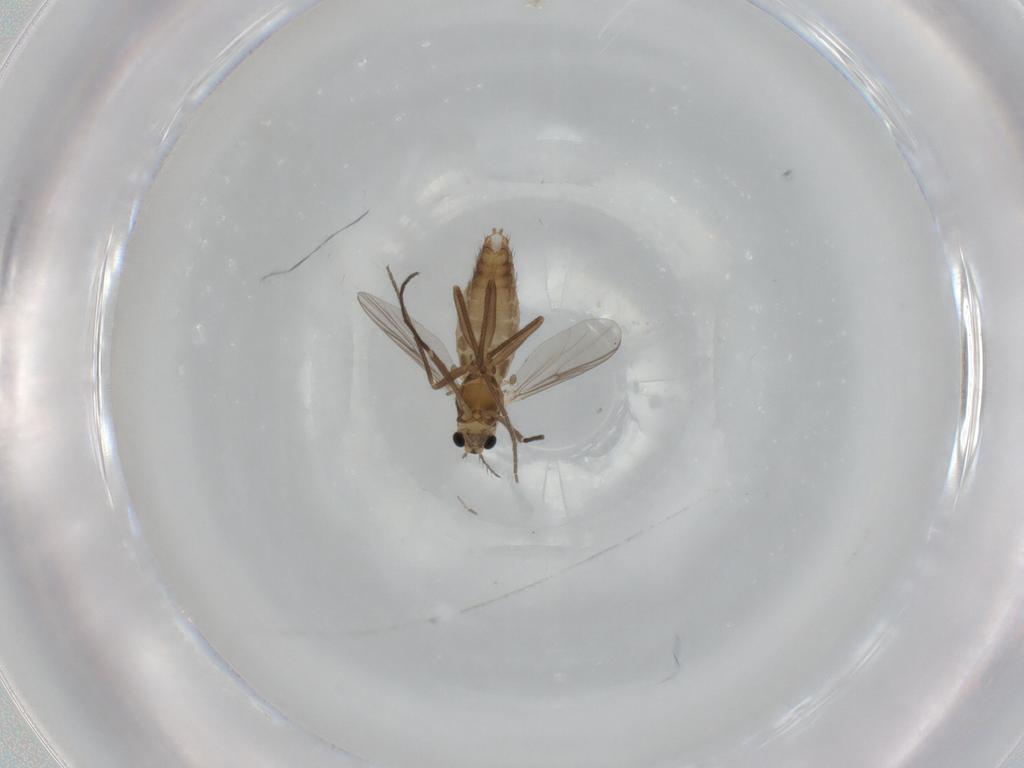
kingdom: Animalia
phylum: Arthropoda
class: Insecta
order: Diptera
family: Chironomidae
